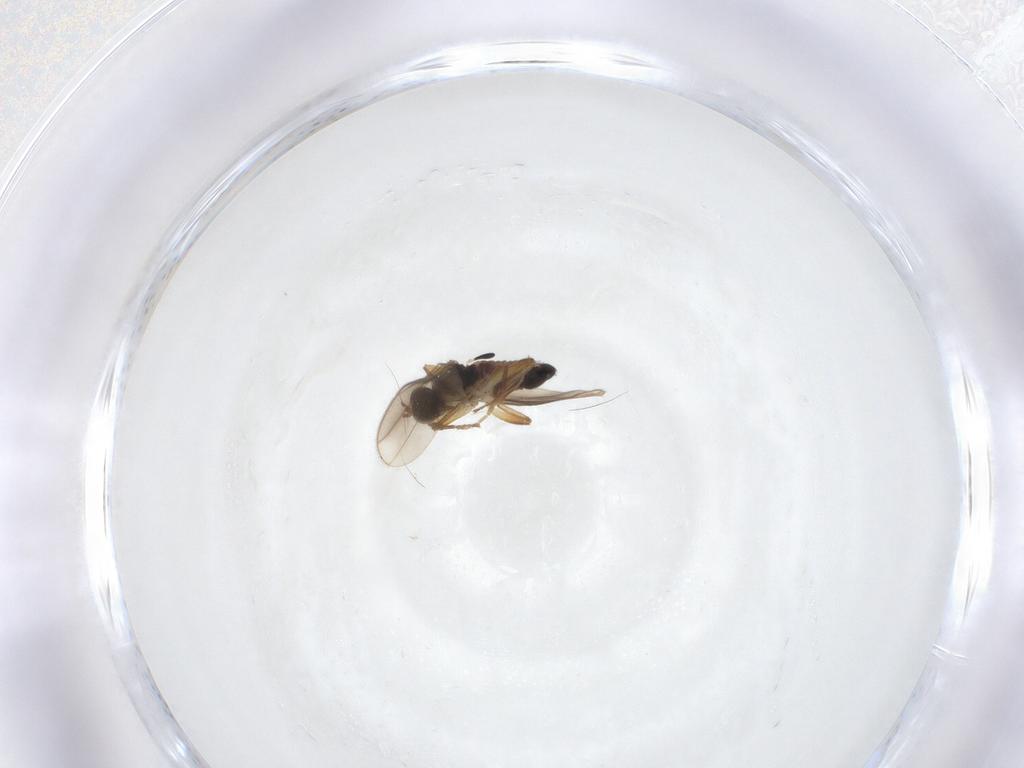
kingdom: Animalia
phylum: Arthropoda
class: Insecta
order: Diptera
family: Hybotidae
